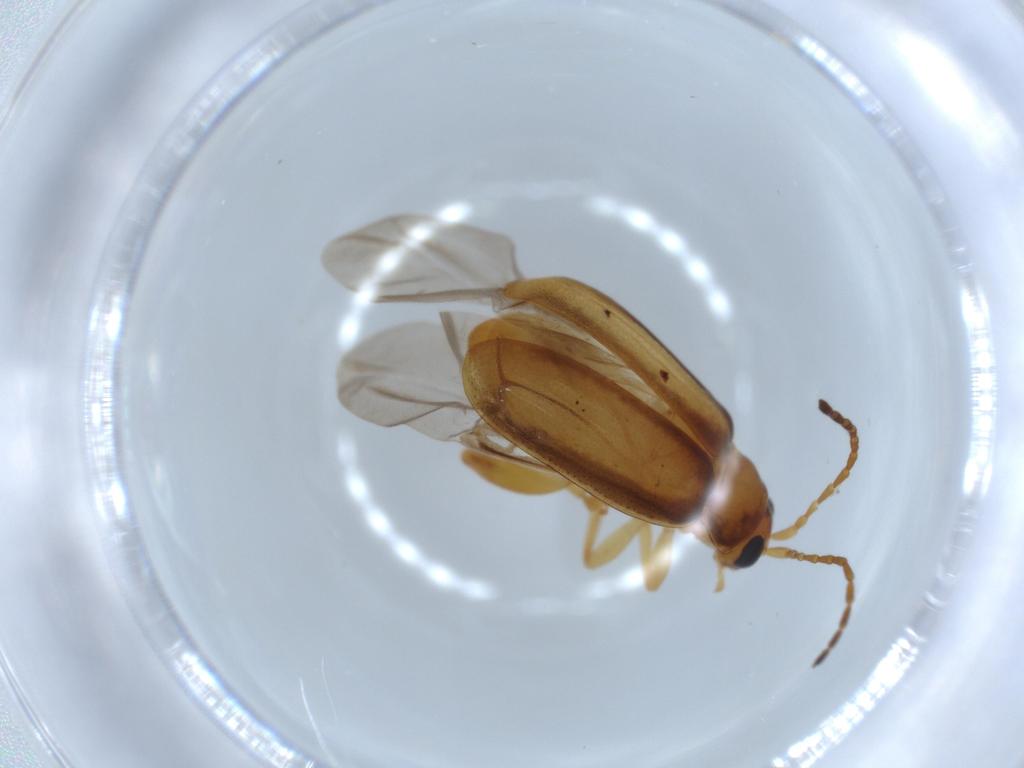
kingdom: Animalia
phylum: Arthropoda
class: Insecta
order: Coleoptera
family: Chrysomelidae
